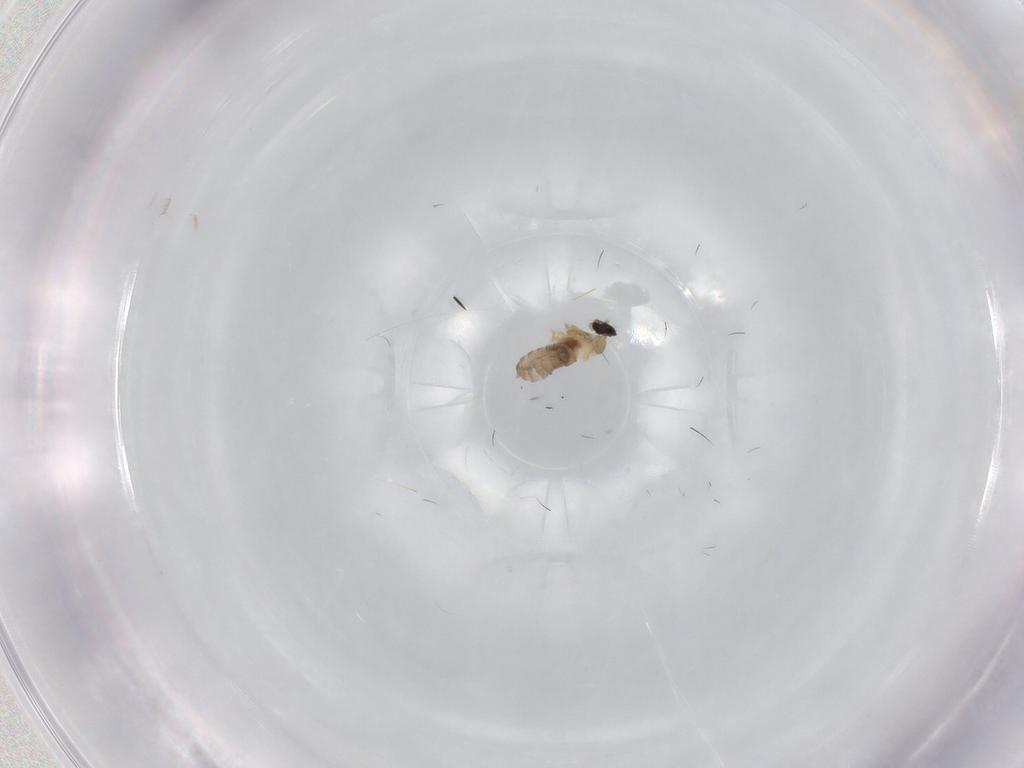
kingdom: Animalia
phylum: Arthropoda
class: Insecta
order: Diptera
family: Cecidomyiidae
